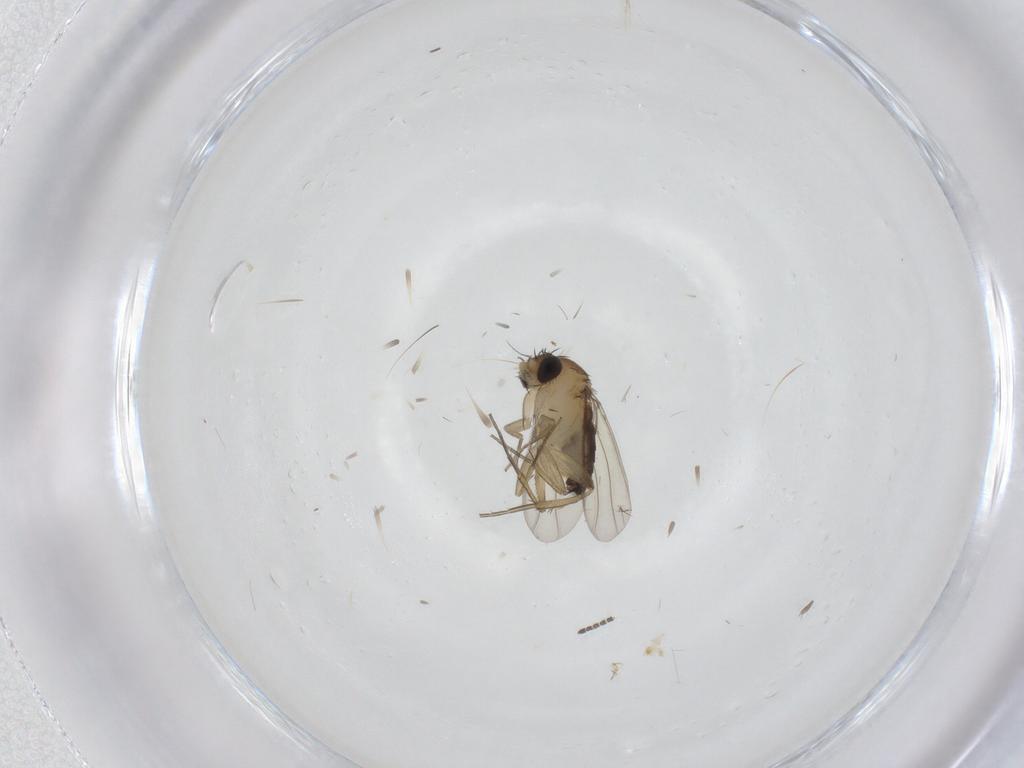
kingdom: Animalia
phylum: Arthropoda
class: Insecta
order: Diptera
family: Sciaridae
